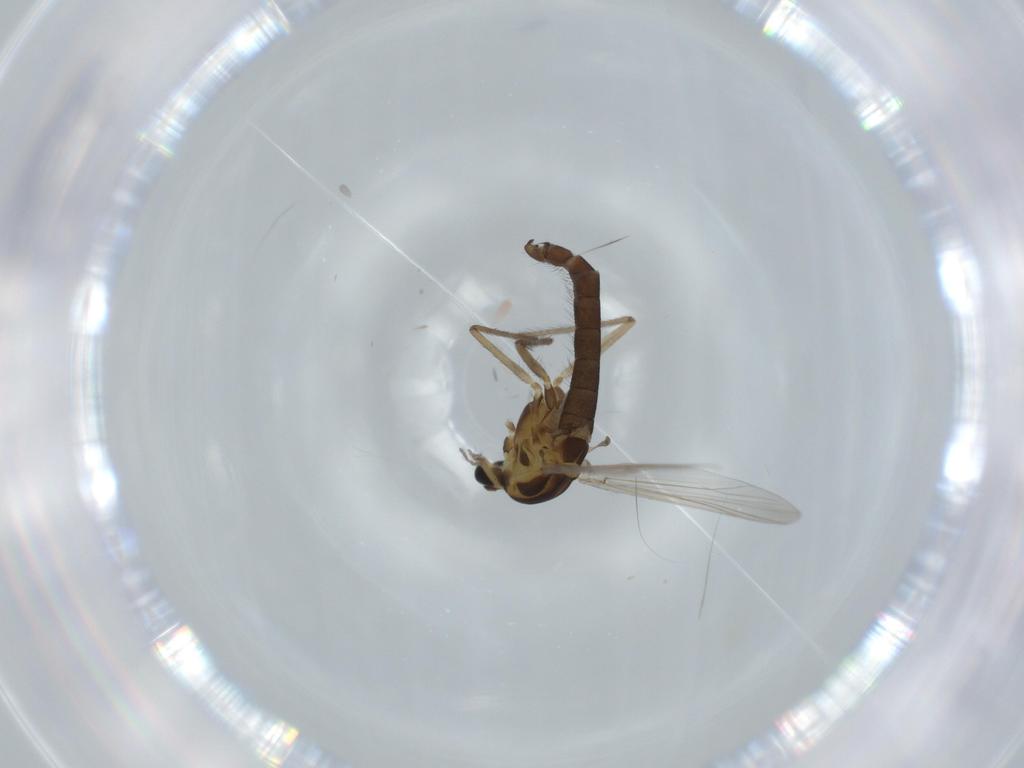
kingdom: Animalia
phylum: Arthropoda
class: Insecta
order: Diptera
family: Chironomidae
